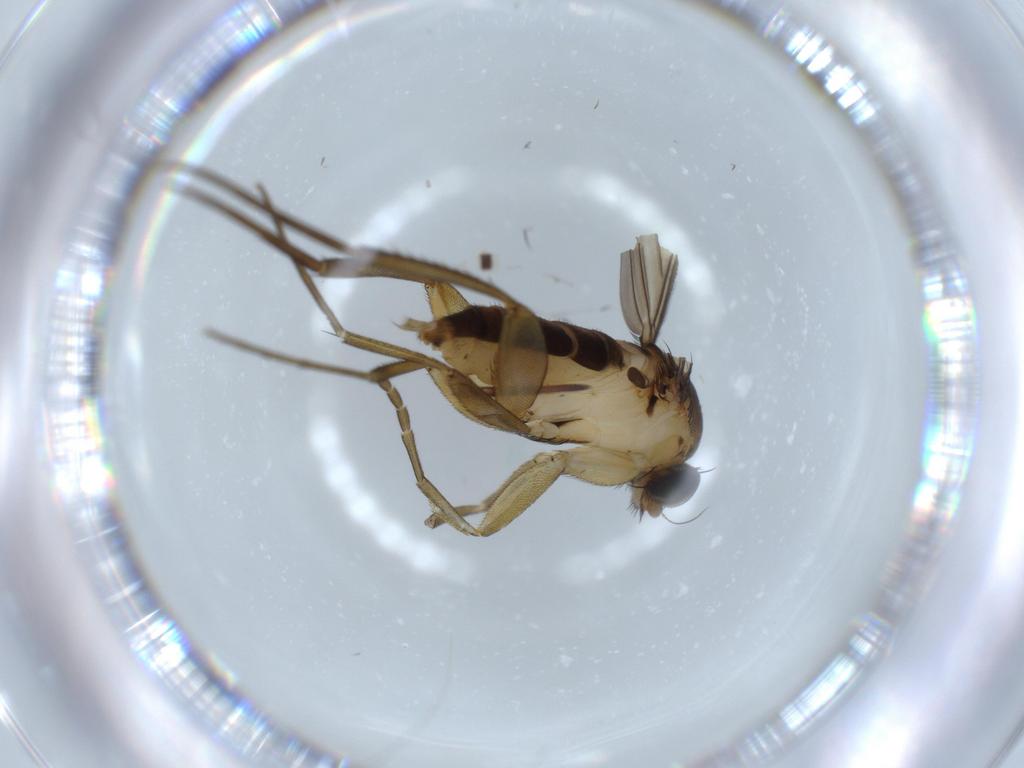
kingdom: Animalia
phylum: Arthropoda
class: Insecta
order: Diptera
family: Phoridae
